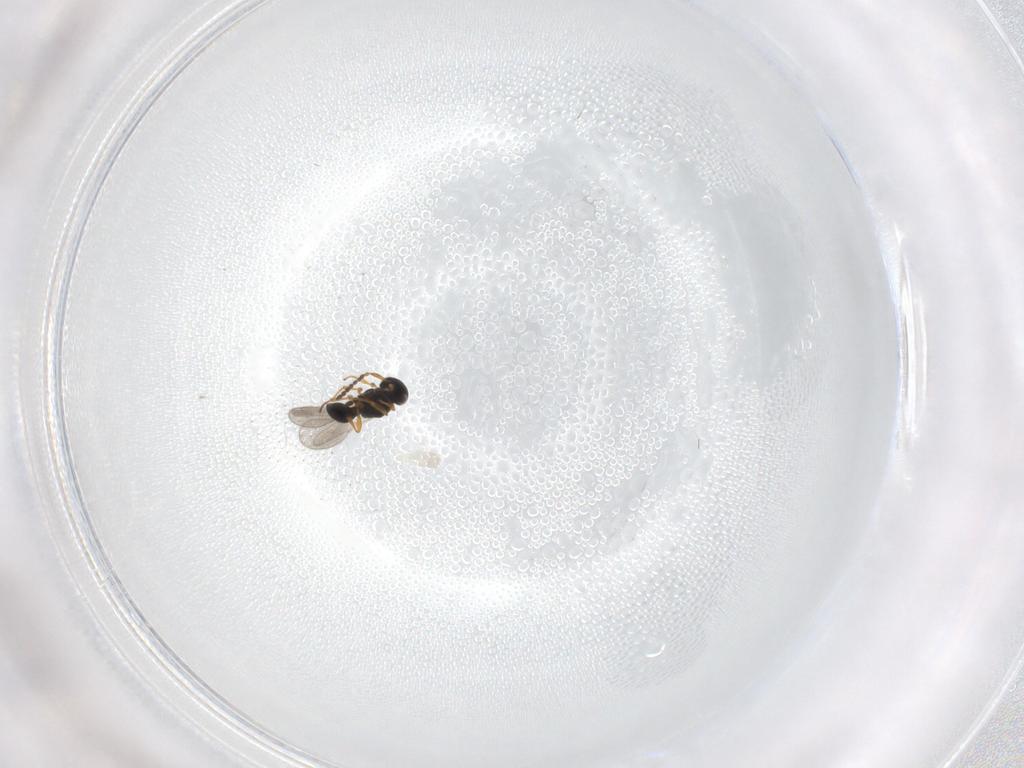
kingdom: Animalia
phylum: Arthropoda
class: Insecta
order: Hymenoptera
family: Platygastridae
